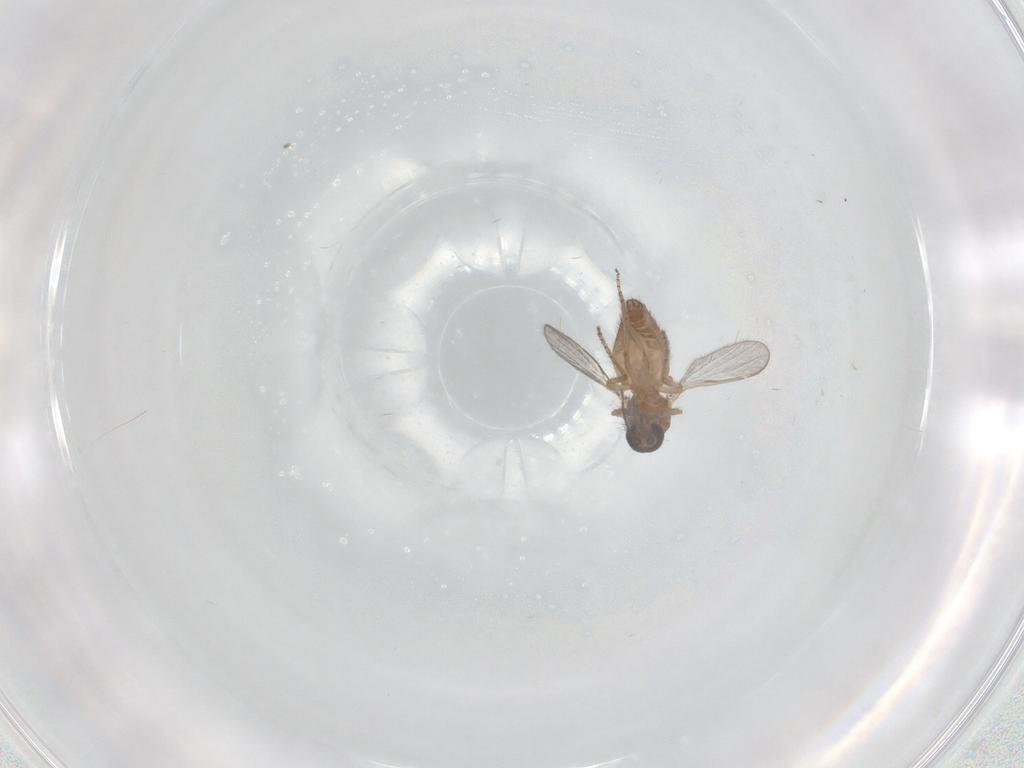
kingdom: Animalia
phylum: Arthropoda
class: Insecta
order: Diptera
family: Ceratopogonidae
